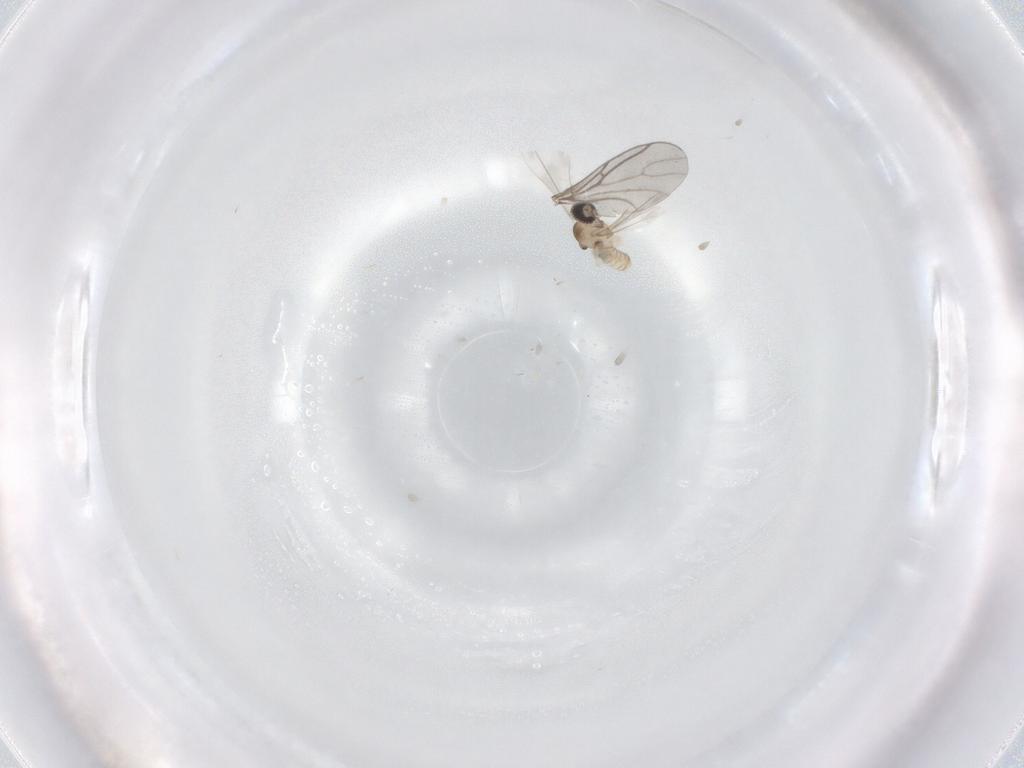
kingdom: Animalia
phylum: Arthropoda
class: Insecta
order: Diptera
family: Cecidomyiidae
